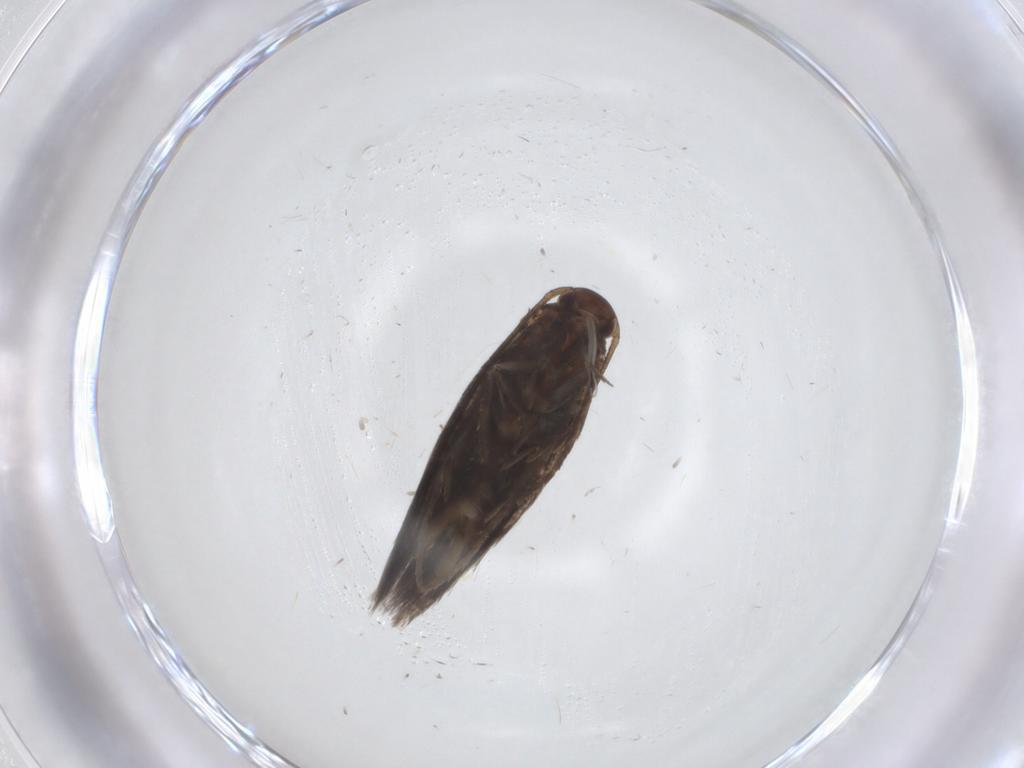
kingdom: Animalia
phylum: Arthropoda
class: Insecta
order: Lepidoptera
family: Elachistidae
